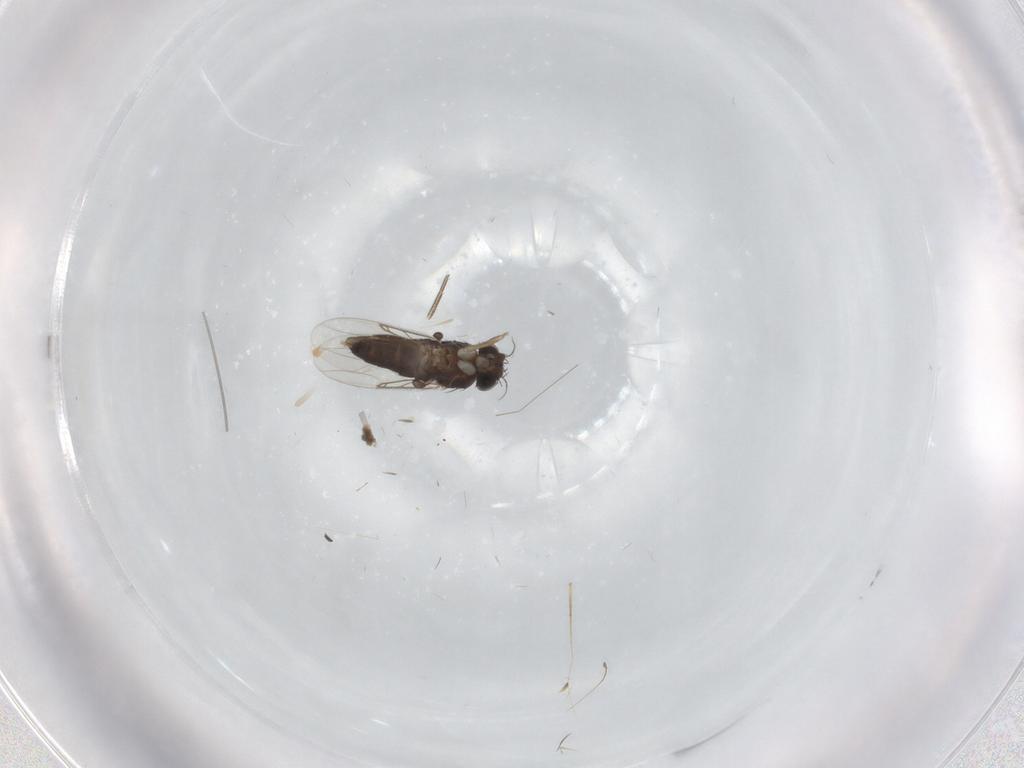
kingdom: Animalia
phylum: Arthropoda
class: Insecta
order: Diptera
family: Phoridae
